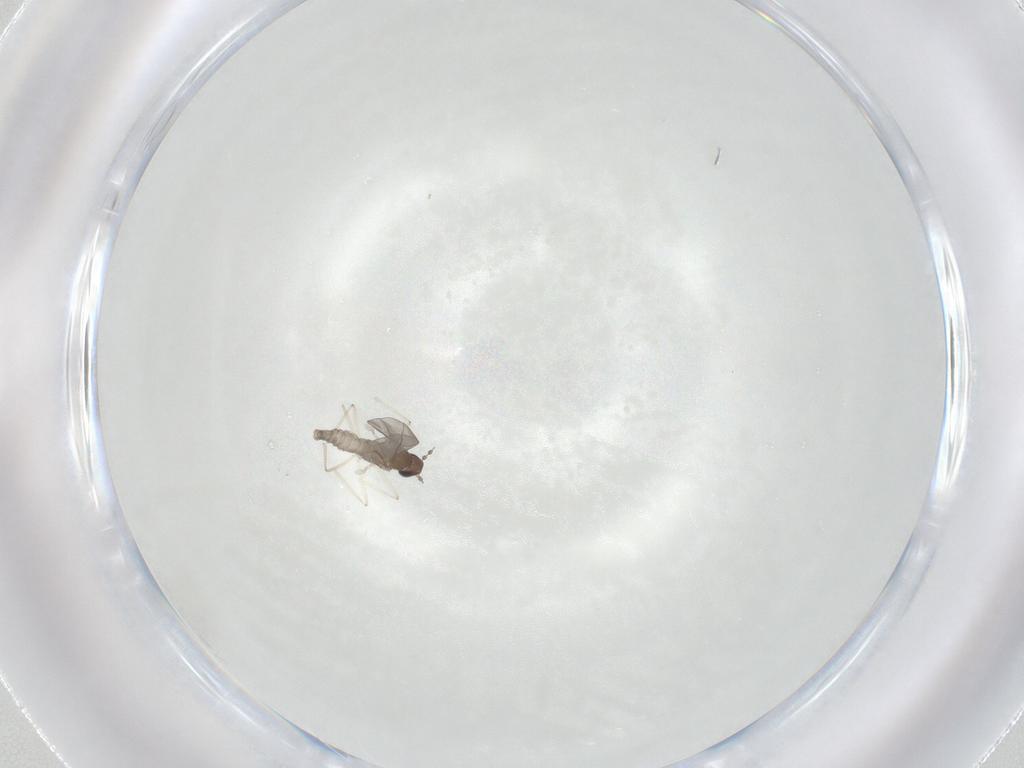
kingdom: Animalia
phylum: Arthropoda
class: Insecta
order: Diptera
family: Cecidomyiidae
